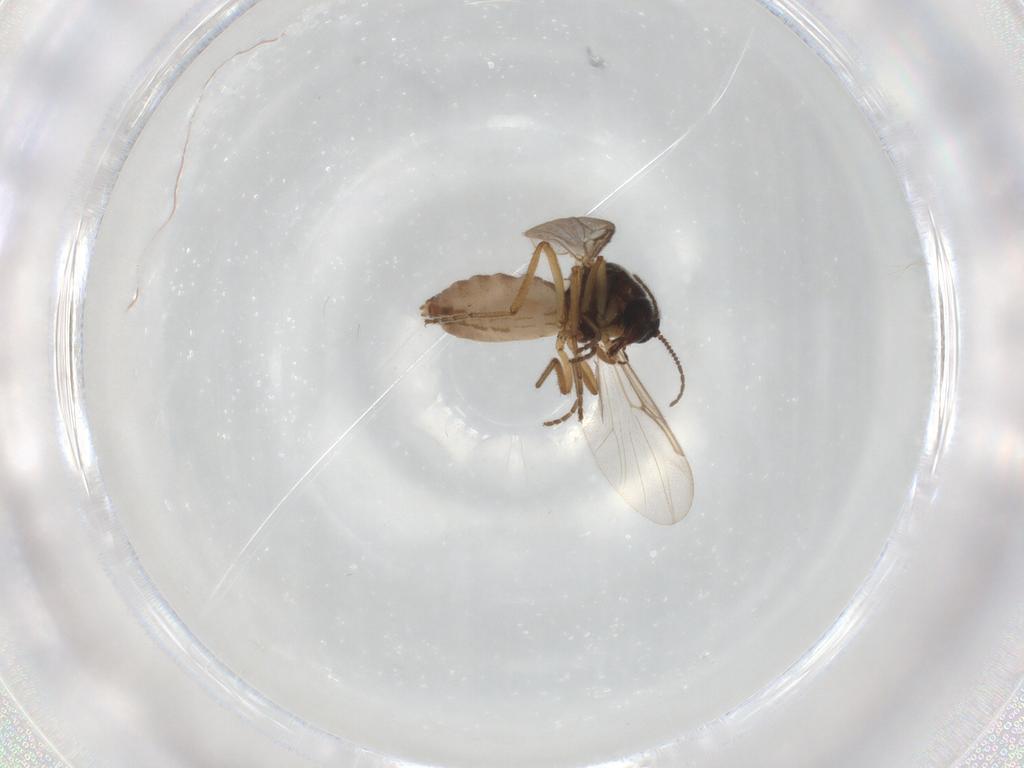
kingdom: Animalia
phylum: Arthropoda
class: Insecta
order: Diptera
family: Ceratopogonidae
